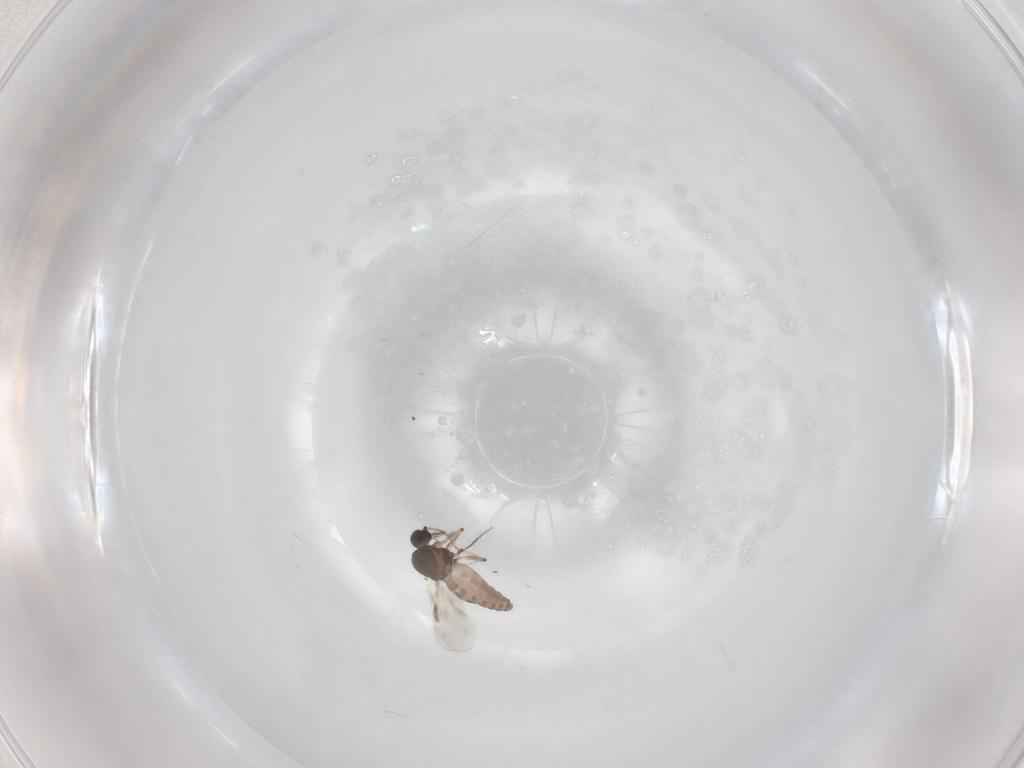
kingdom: Animalia
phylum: Arthropoda
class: Insecta
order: Diptera
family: Phoridae
